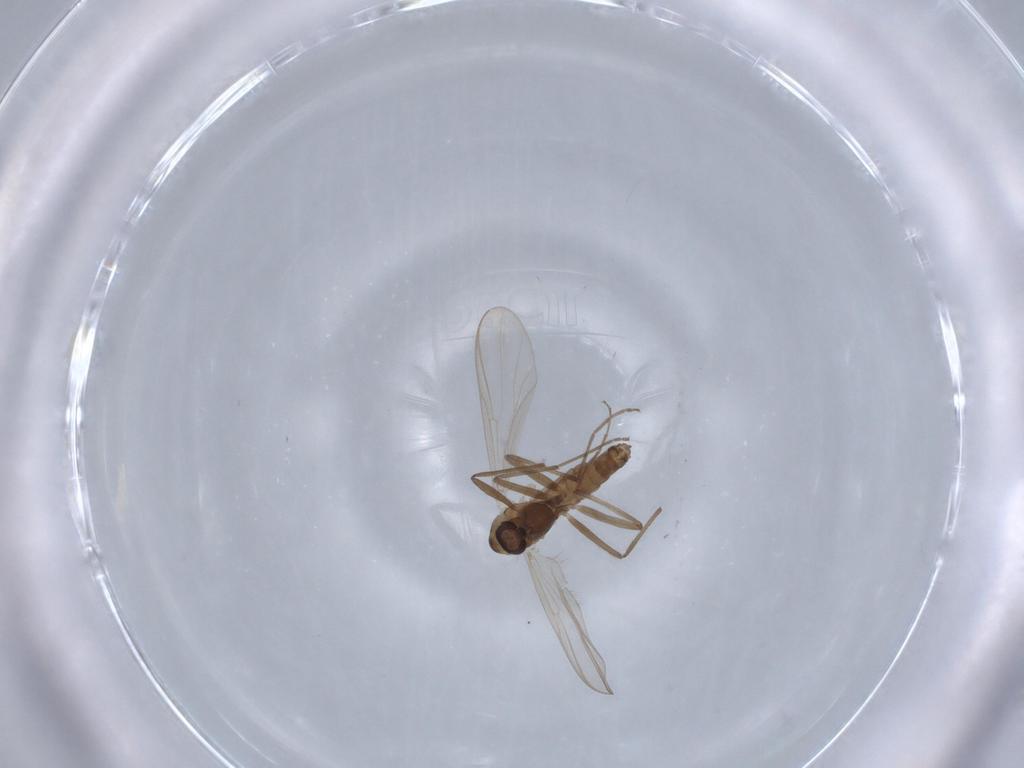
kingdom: Animalia
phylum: Arthropoda
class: Insecta
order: Diptera
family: Chironomidae
